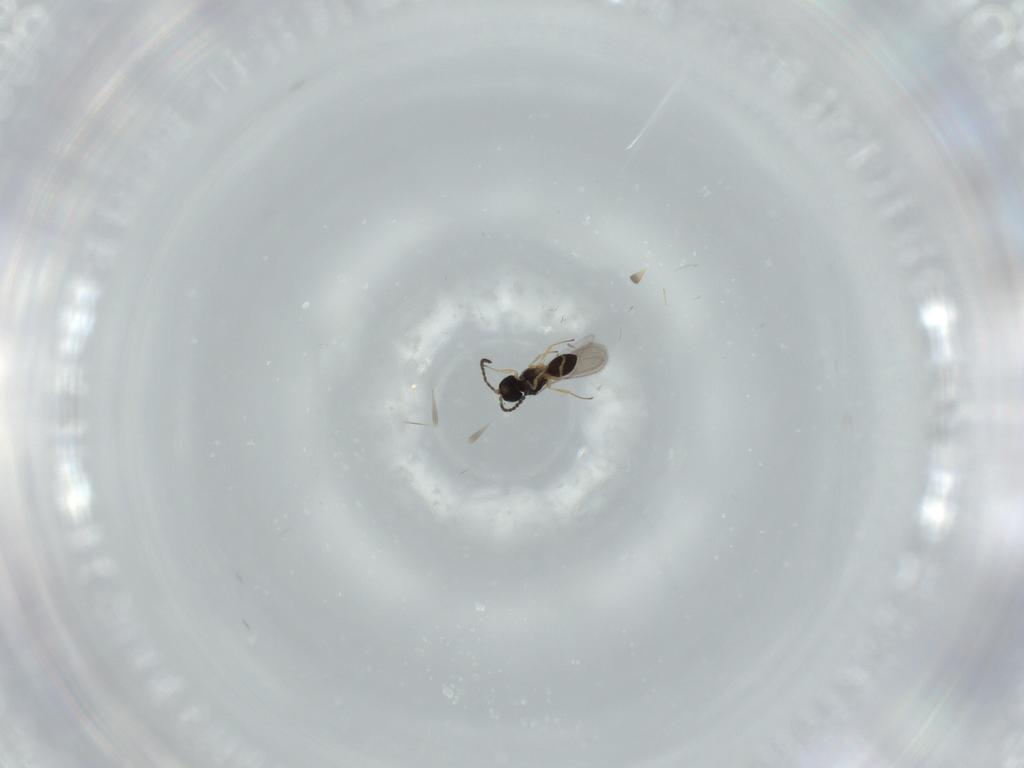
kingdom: Animalia
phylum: Arthropoda
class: Insecta
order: Hymenoptera
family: Scelionidae
